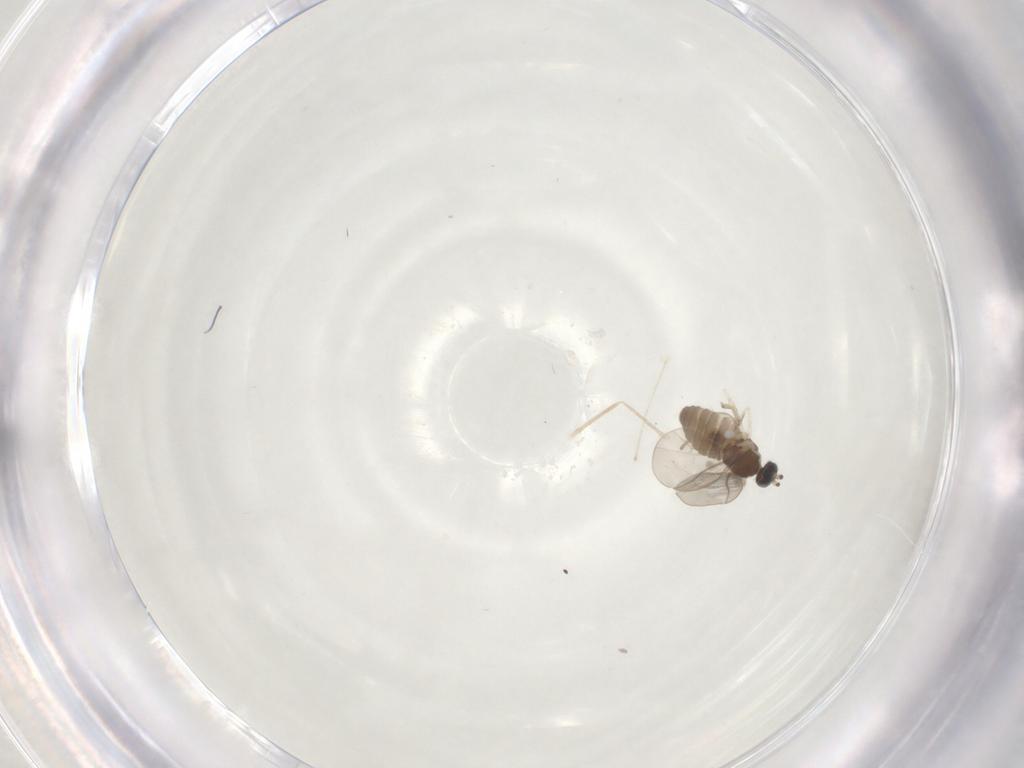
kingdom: Animalia
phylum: Arthropoda
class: Insecta
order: Diptera
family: Cecidomyiidae
